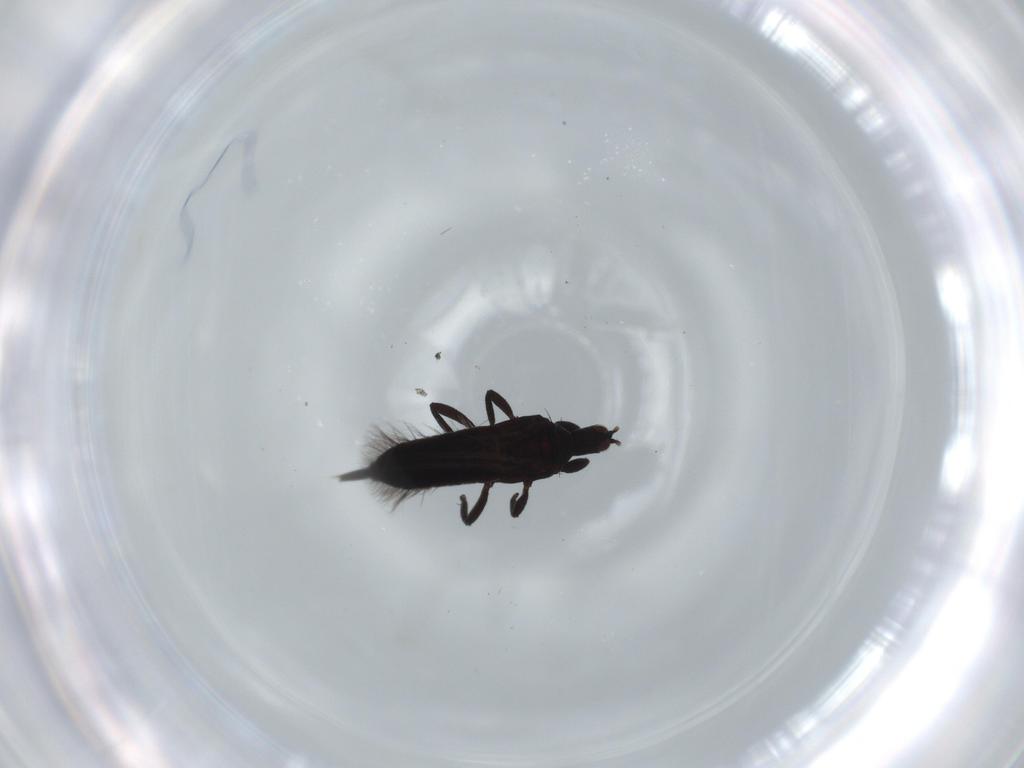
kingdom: Animalia
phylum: Arthropoda
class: Insecta
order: Thysanoptera
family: Phlaeothripidae
